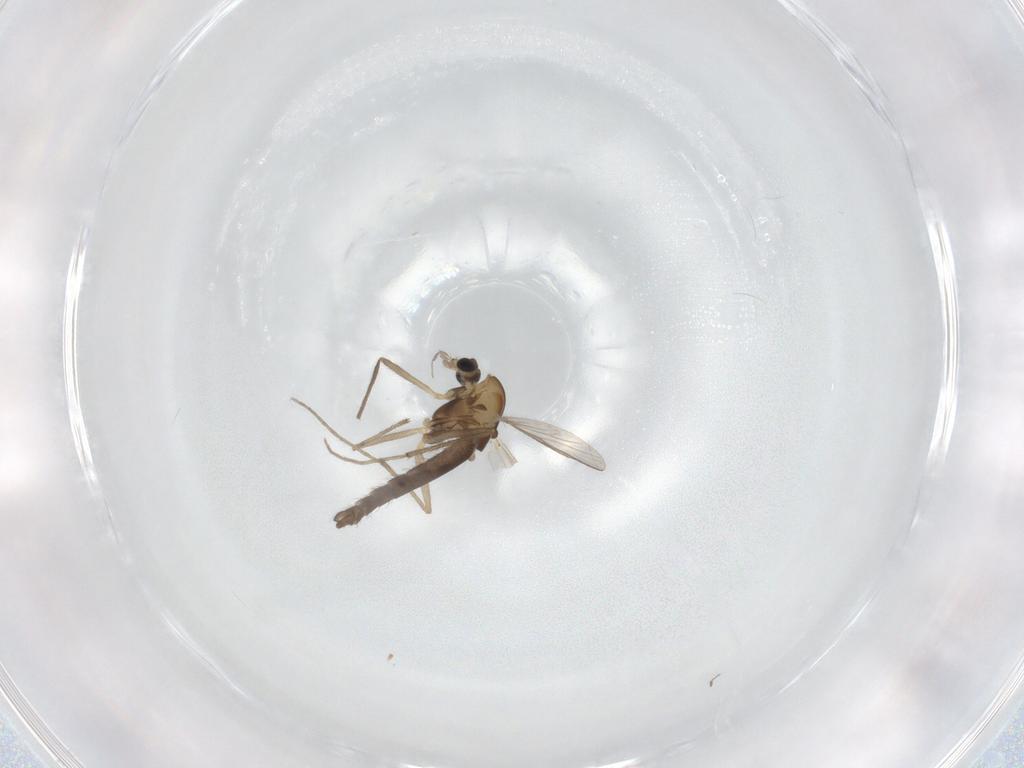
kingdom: Animalia
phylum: Arthropoda
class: Insecta
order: Diptera
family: Chironomidae
